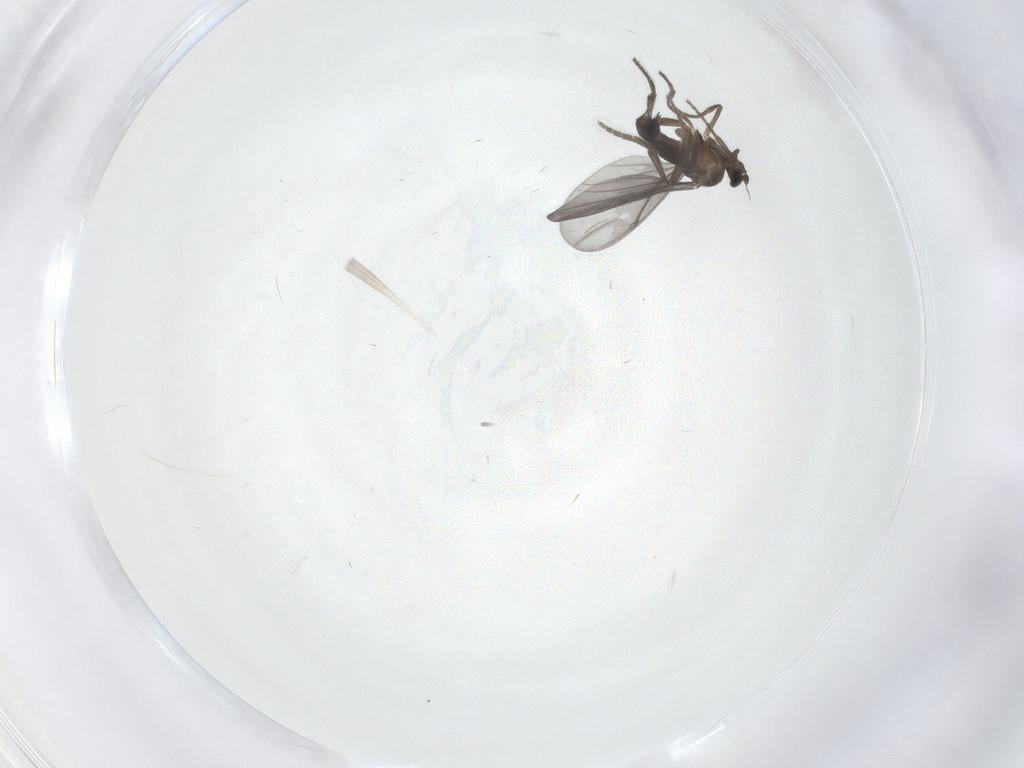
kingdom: Animalia
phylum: Arthropoda
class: Insecta
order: Diptera
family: Phoridae
